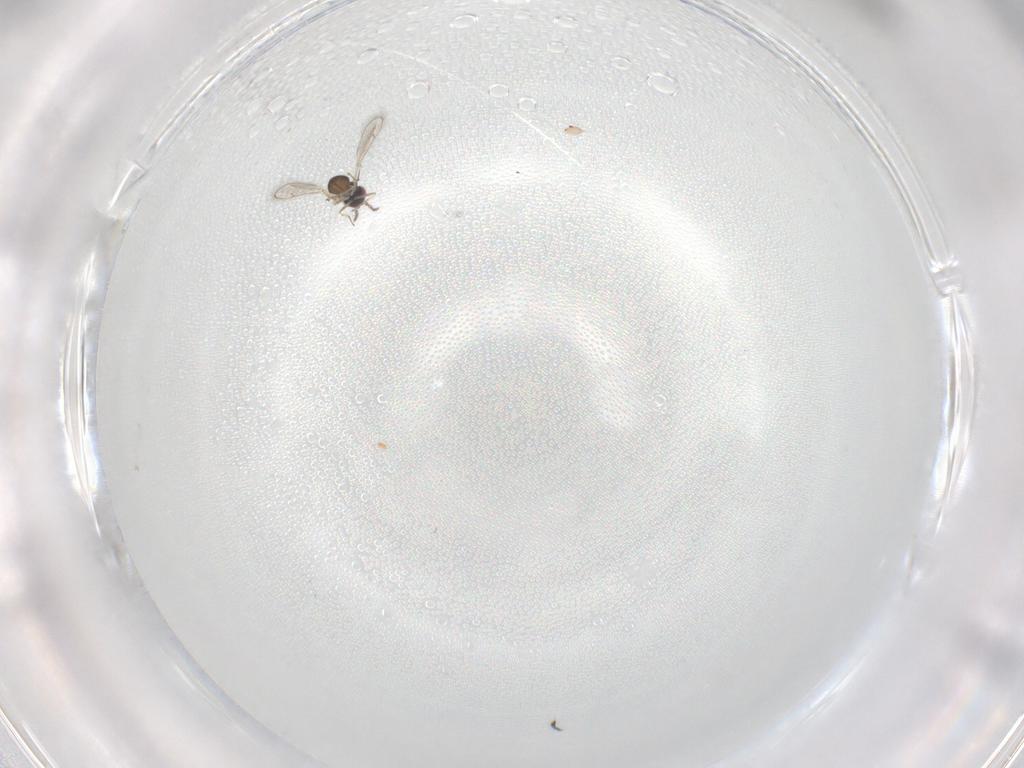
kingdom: Animalia
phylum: Arthropoda
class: Insecta
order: Hymenoptera
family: Eulophidae
